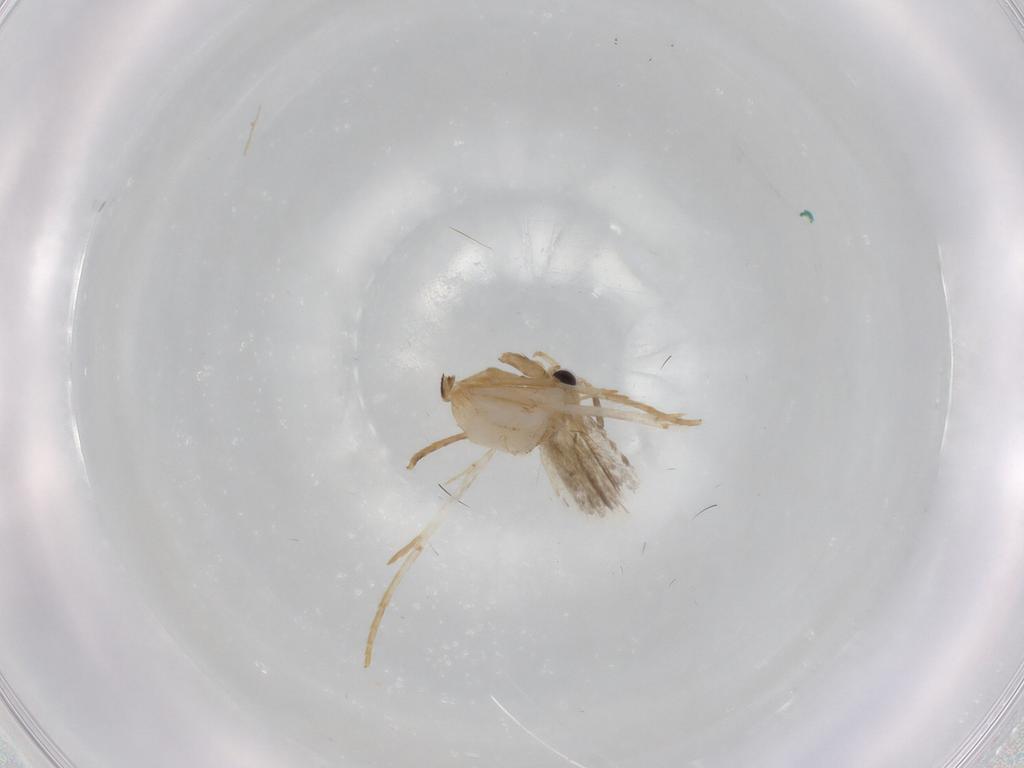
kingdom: Animalia
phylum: Arthropoda
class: Insecta
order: Lepidoptera
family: Tineidae
